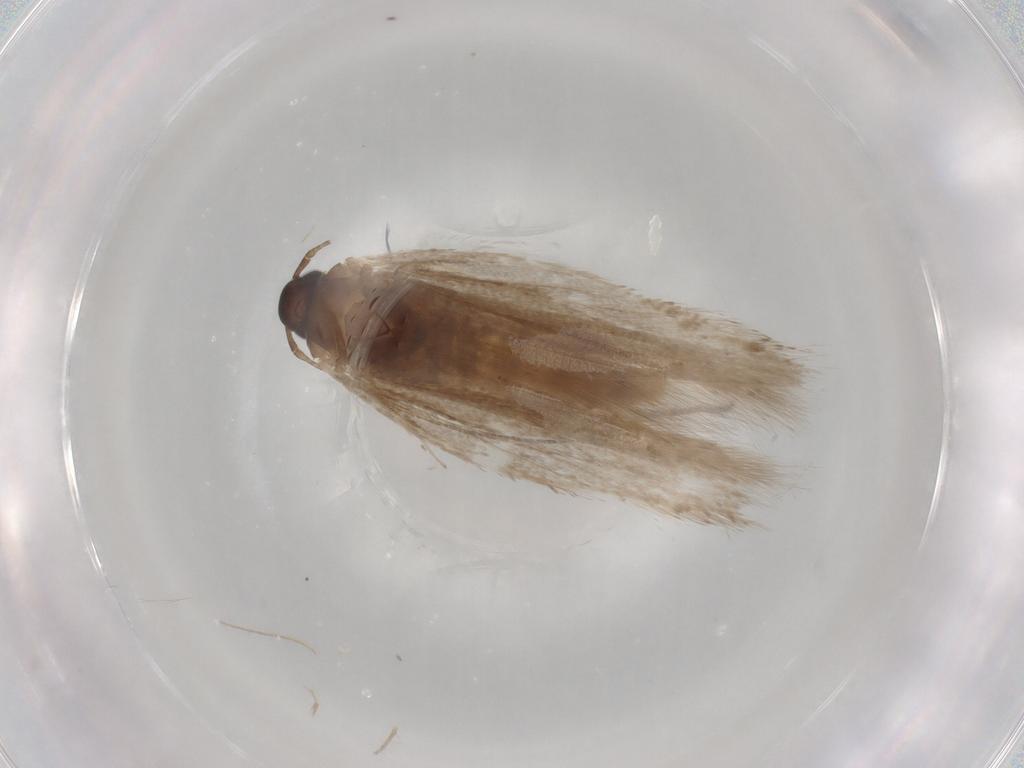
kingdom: Animalia
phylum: Arthropoda
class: Insecta
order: Lepidoptera
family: Gelechiidae
